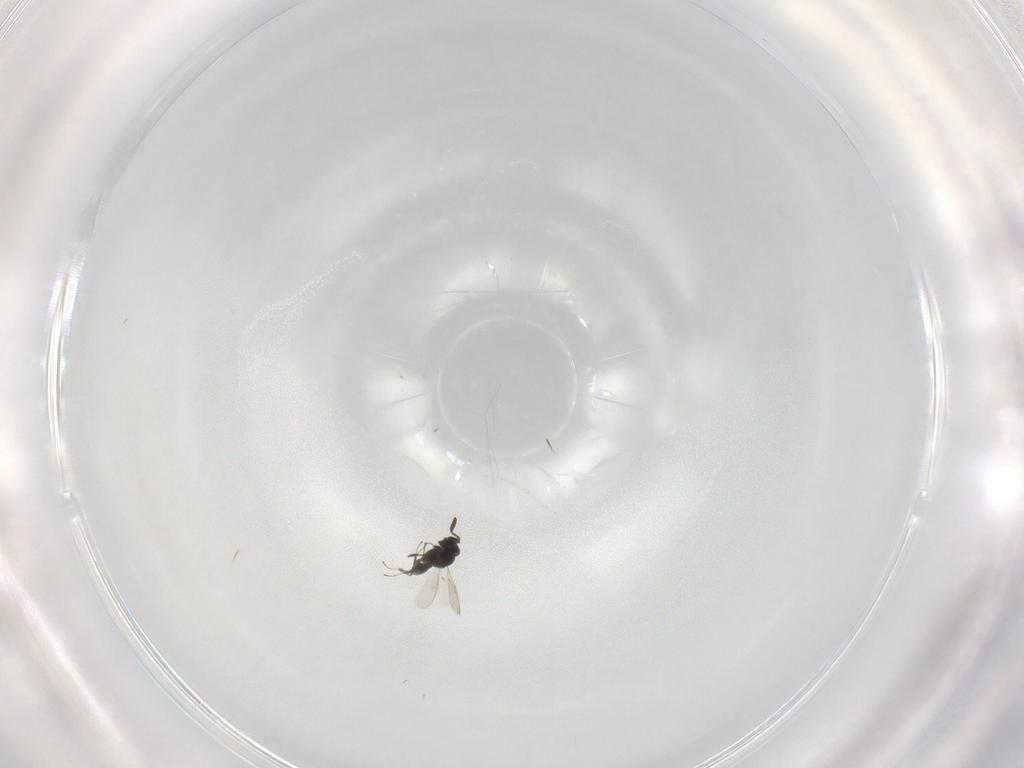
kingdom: Animalia
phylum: Arthropoda
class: Insecta
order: Hymenoptera
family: Scelionidae
